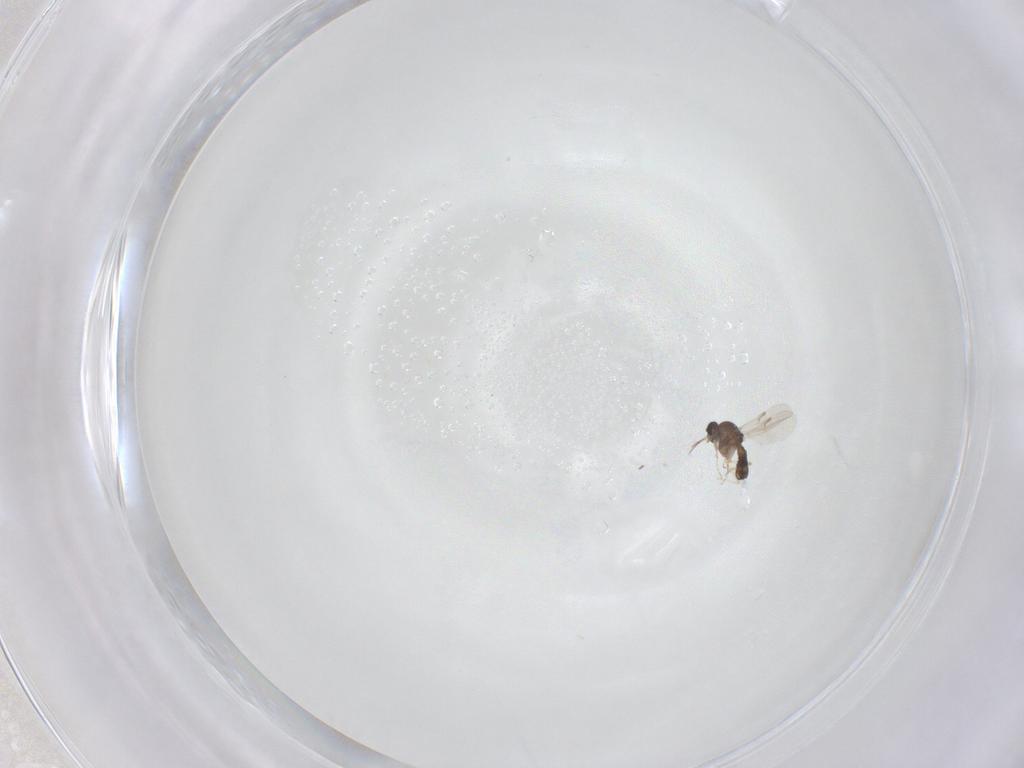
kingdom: Animalia
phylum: Arthropoda
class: Insecta
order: Diptera
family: Ceratopogonidae
